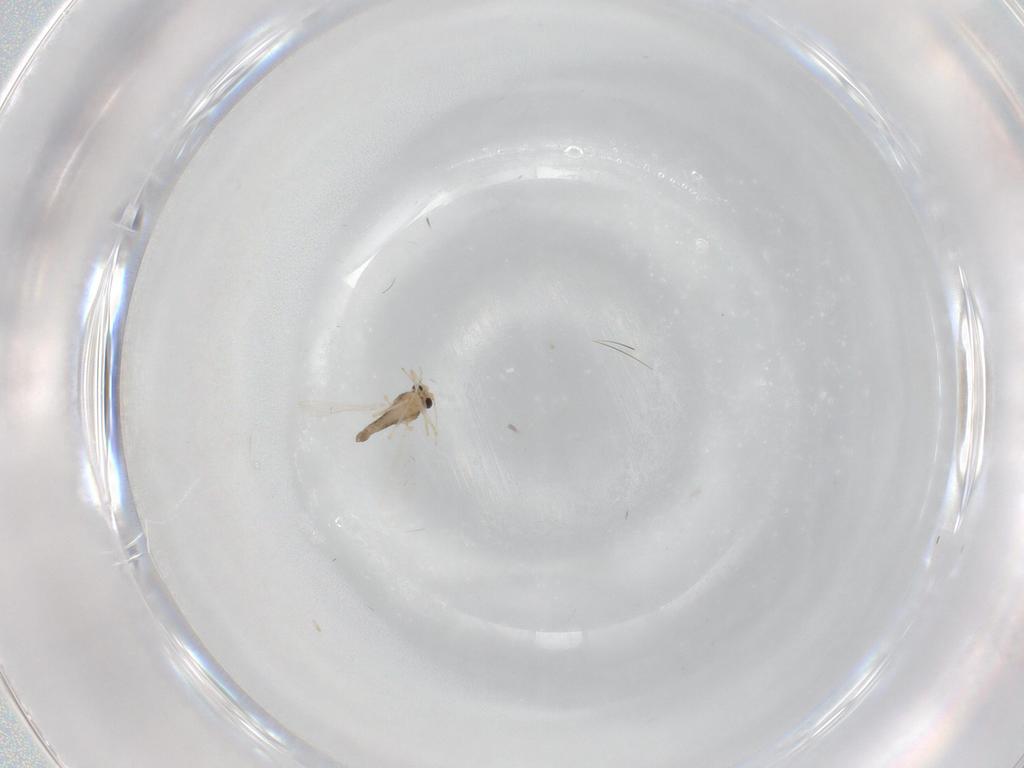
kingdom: Animalia
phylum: Arthropoda
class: Insecta
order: Diptera
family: Chironomidae
